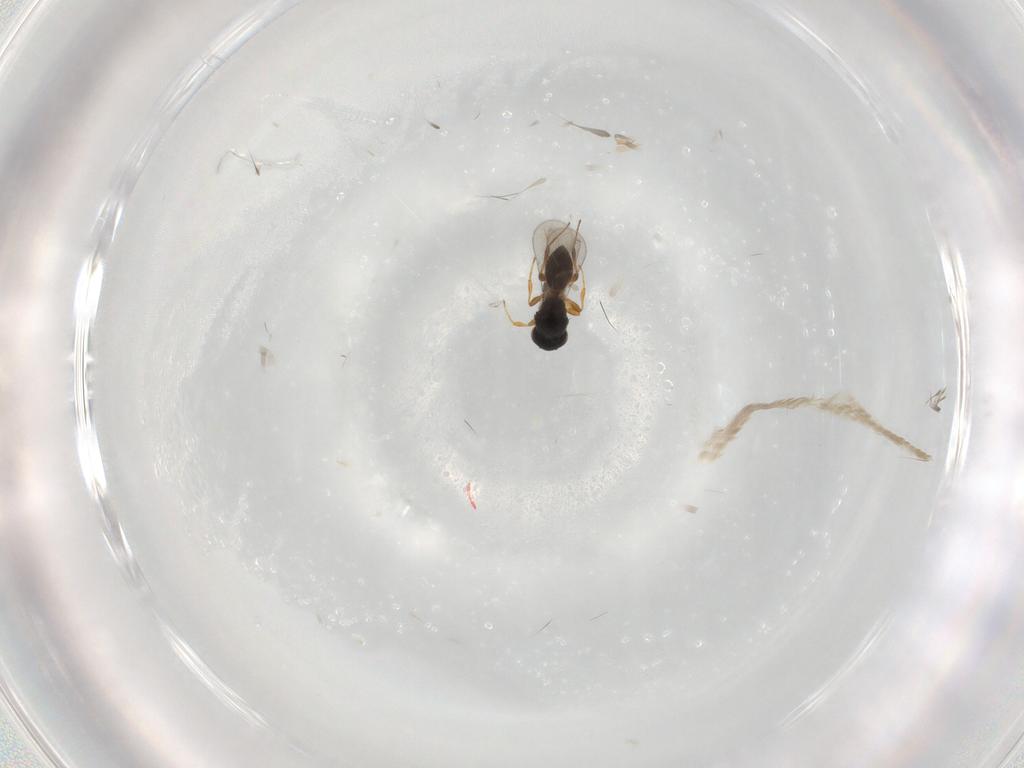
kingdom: Animalia
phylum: Arthropoda
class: Insecta
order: Hymenoptera
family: Platygastridae
